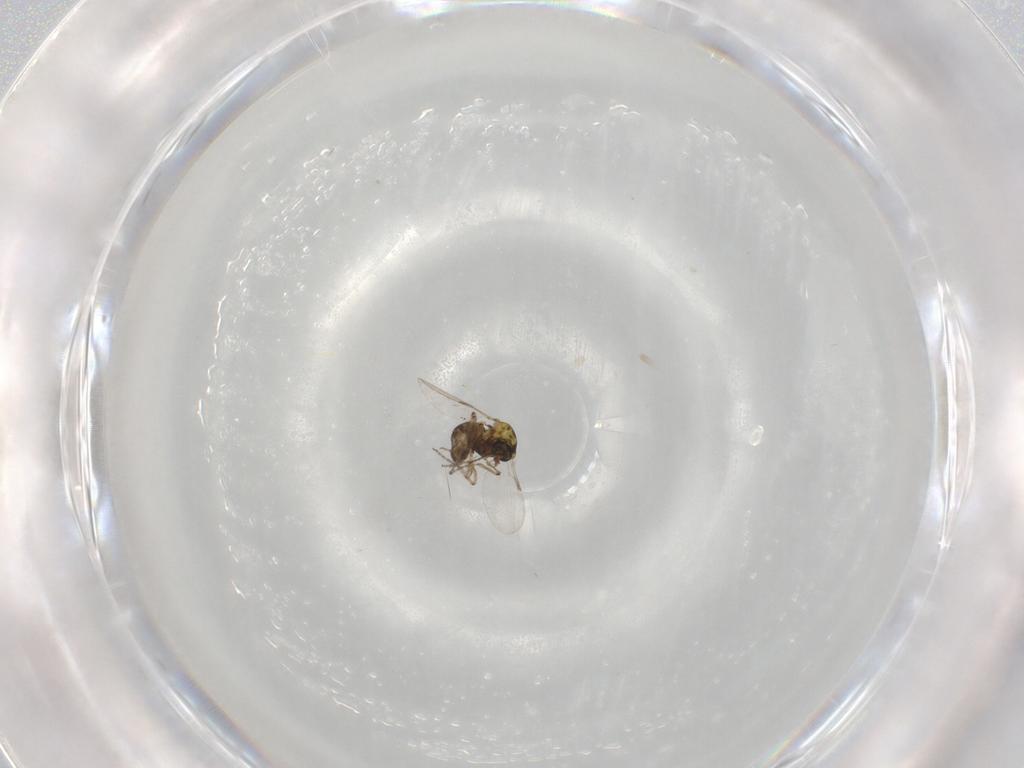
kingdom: Animalia
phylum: Arthropoda
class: Insecta
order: Diptera
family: Ceratopogonidae
